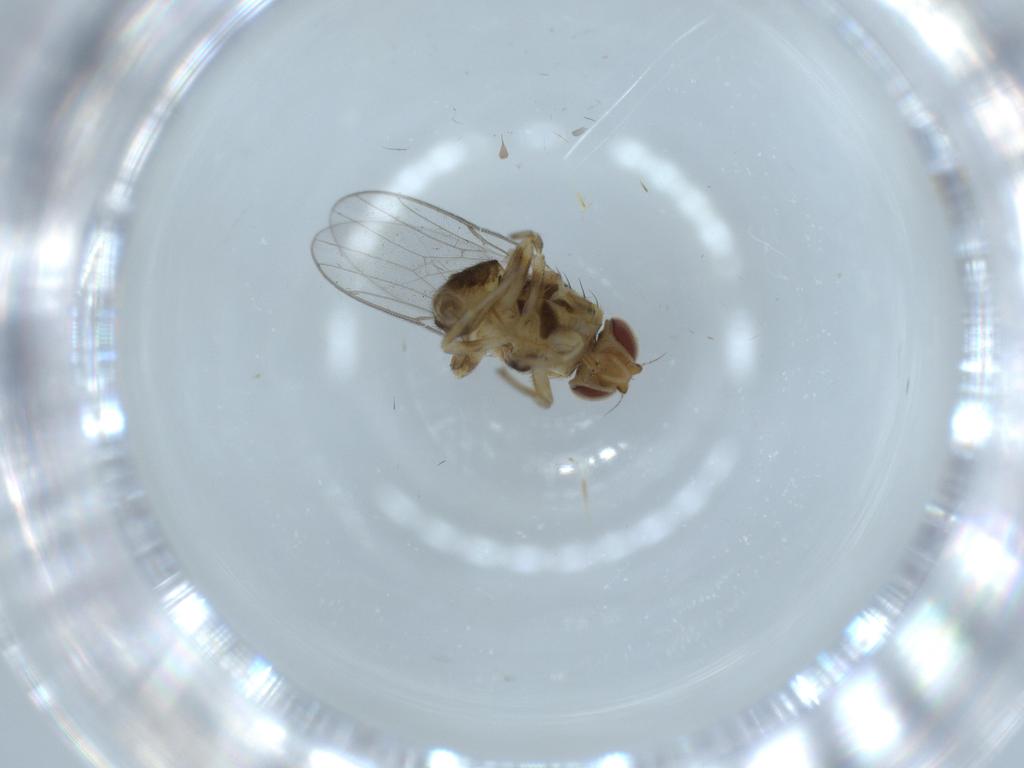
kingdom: Animalia
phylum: Arthropoda
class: Insecta
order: Diptera
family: Chloropidae
